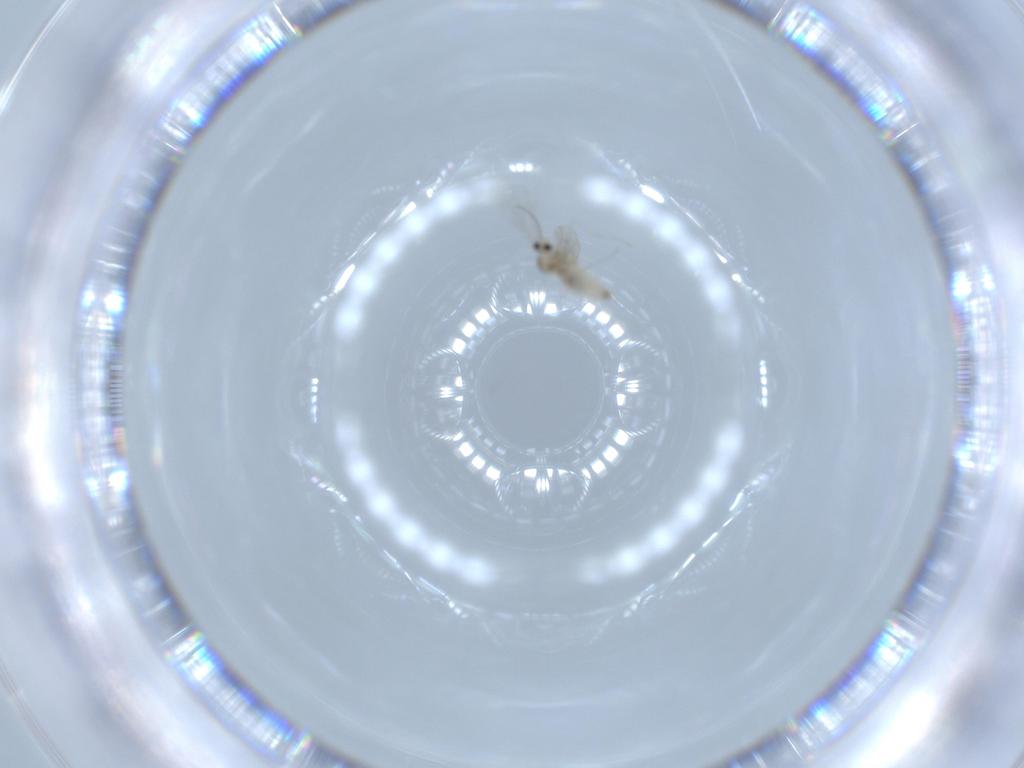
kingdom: Animalia
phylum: Arthropoda
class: Insecta
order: Diptera
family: Cecidomyiidae
